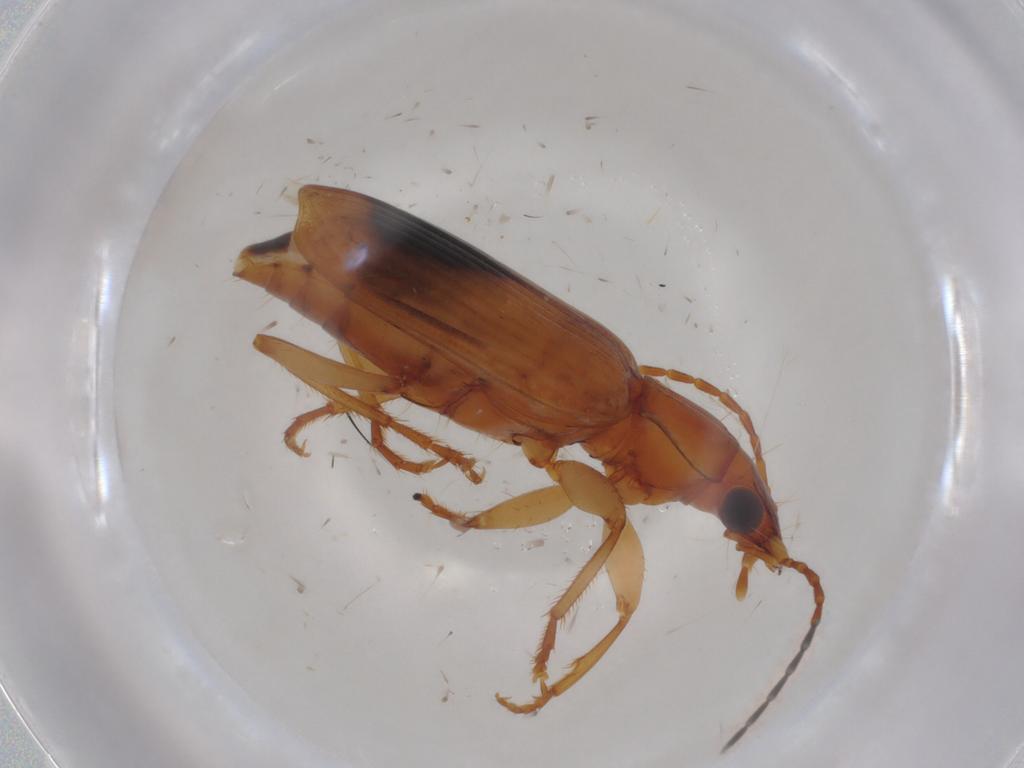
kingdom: Animalia
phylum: Arthropoda
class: Insecta
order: Coleoptera
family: Carabidae
